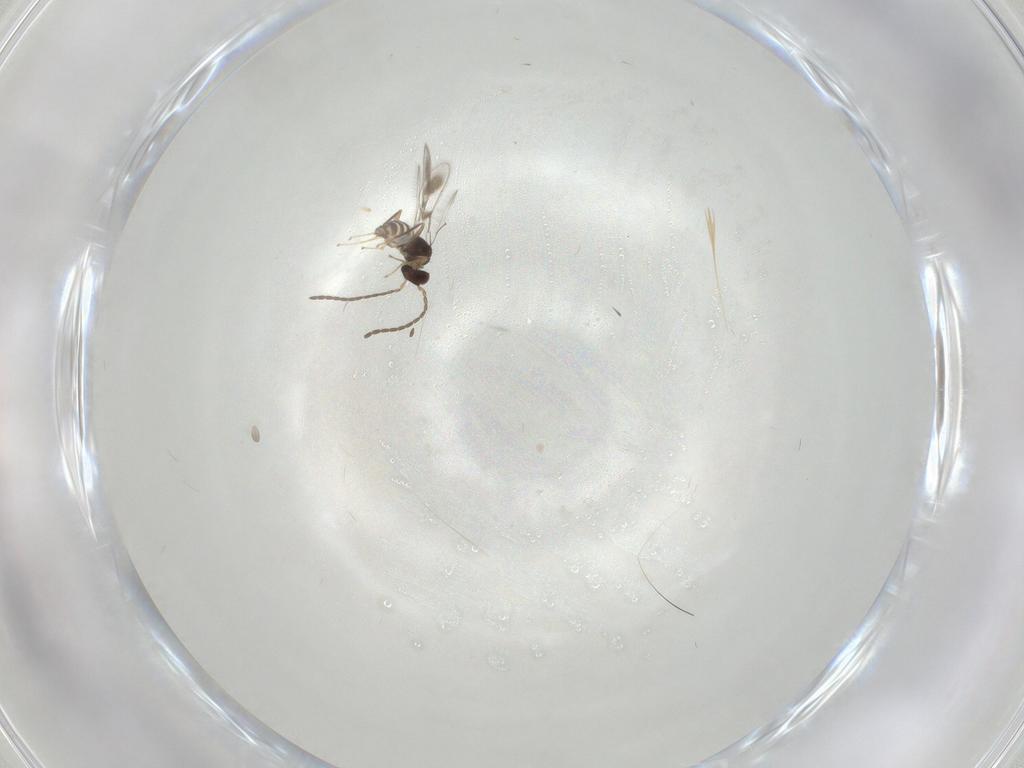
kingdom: Animalia
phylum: Arthropoda
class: Insecta
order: Hymenoptera
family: Mymaridae
